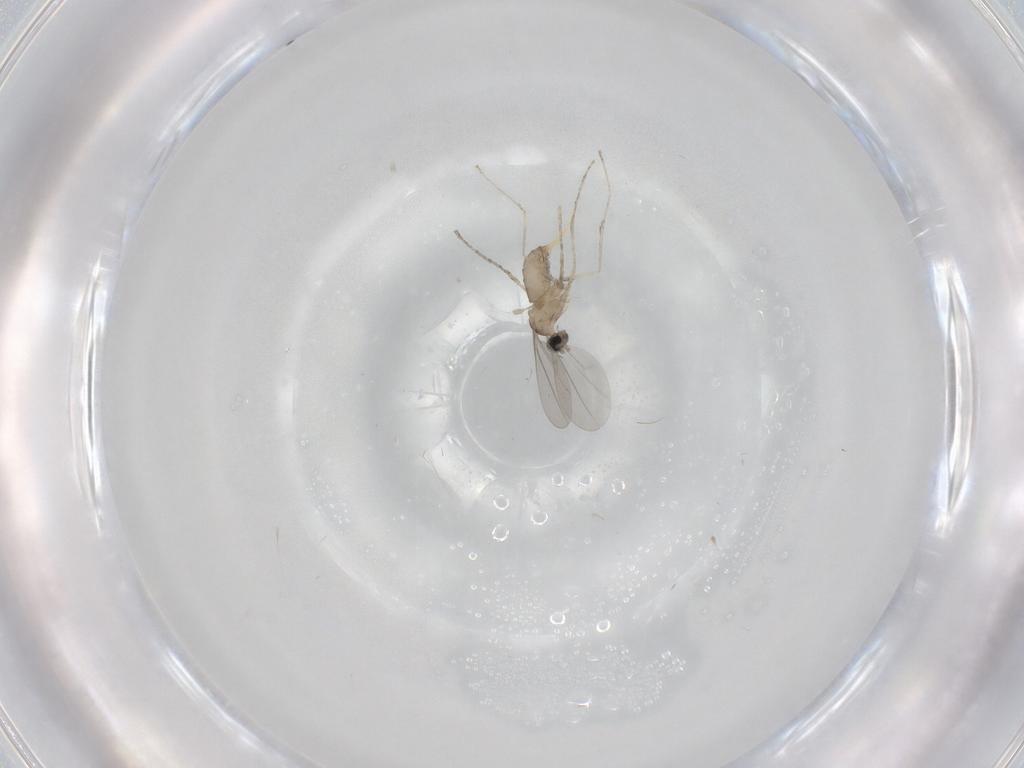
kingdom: Animalia
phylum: Arthropoda
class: Insecta
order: Diptera
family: Cecidomyiidae
